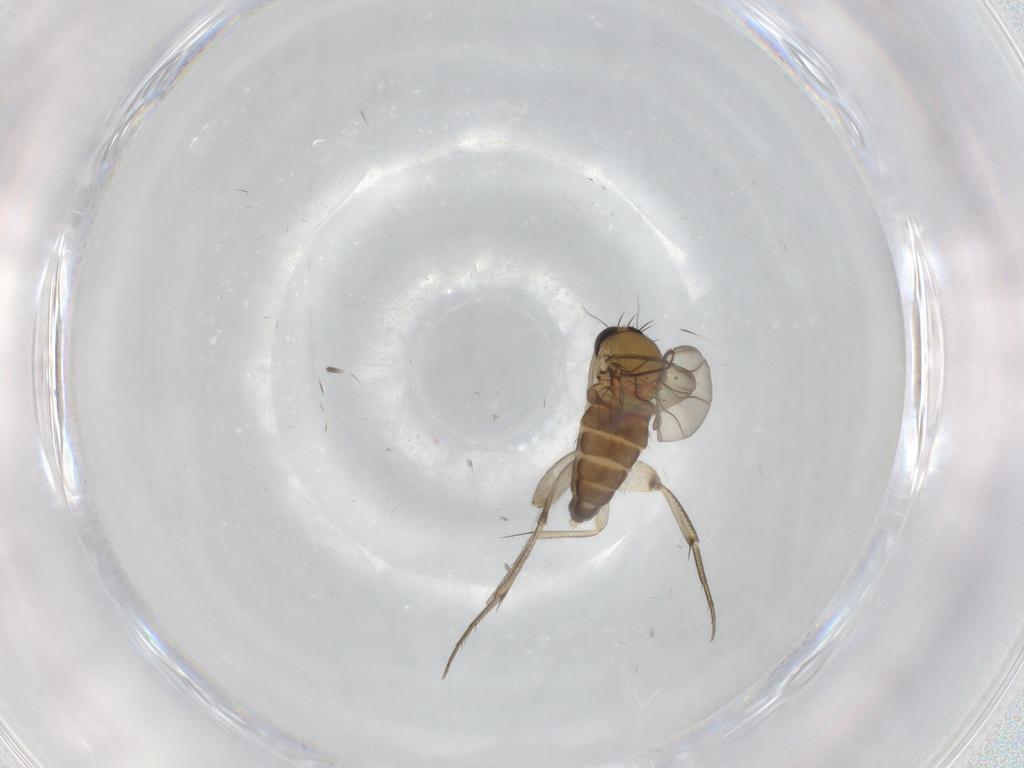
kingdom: Animalia
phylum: Arthropoda
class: Insecta
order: Diptera
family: Phoridae
